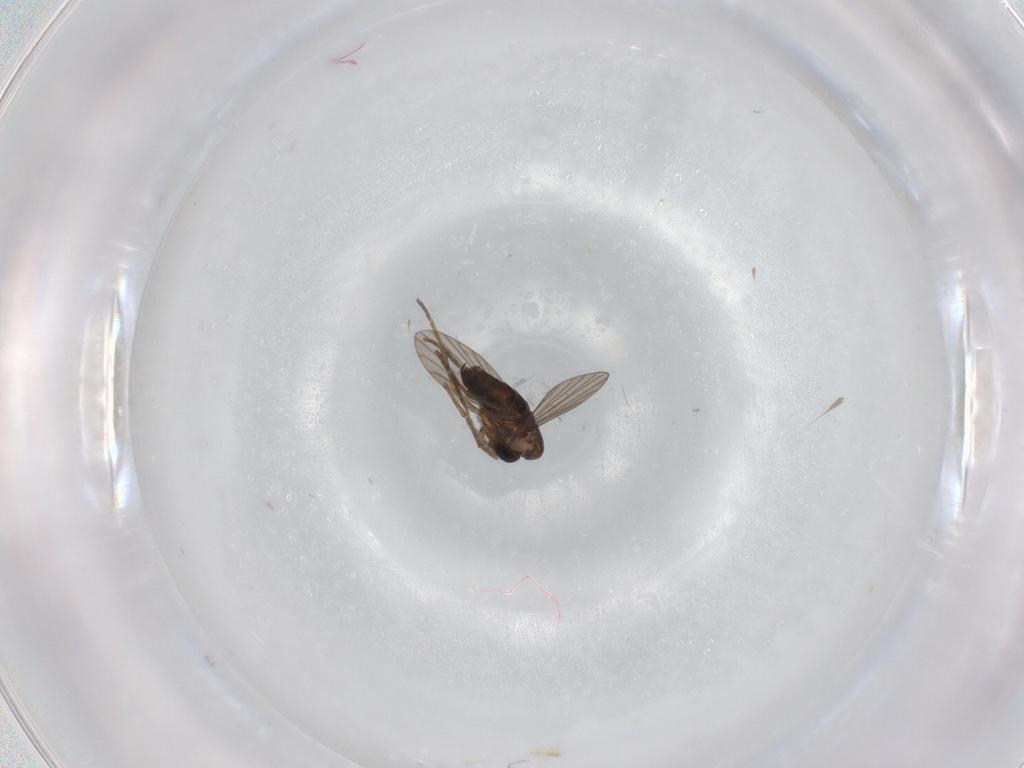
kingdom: Animalia
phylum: Arthropoda
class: Insecta
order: Diptera
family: Psychodidae
